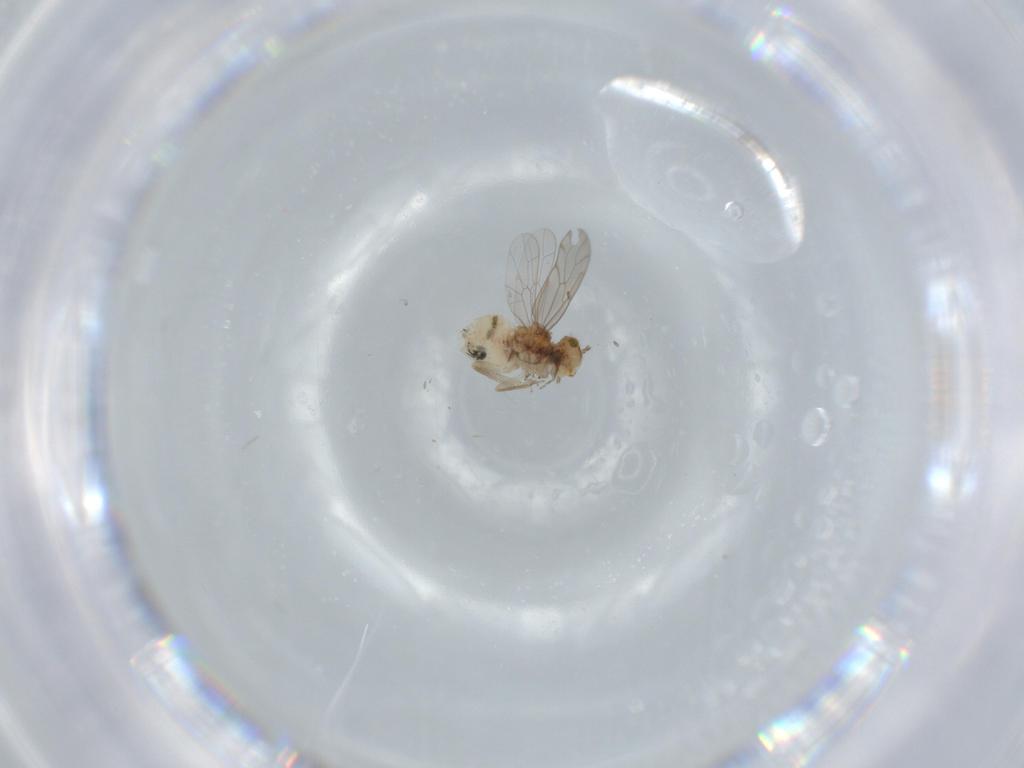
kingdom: Animalia
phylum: Arthropoda
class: Insecta
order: Psocodea
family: Ectopsocidae
